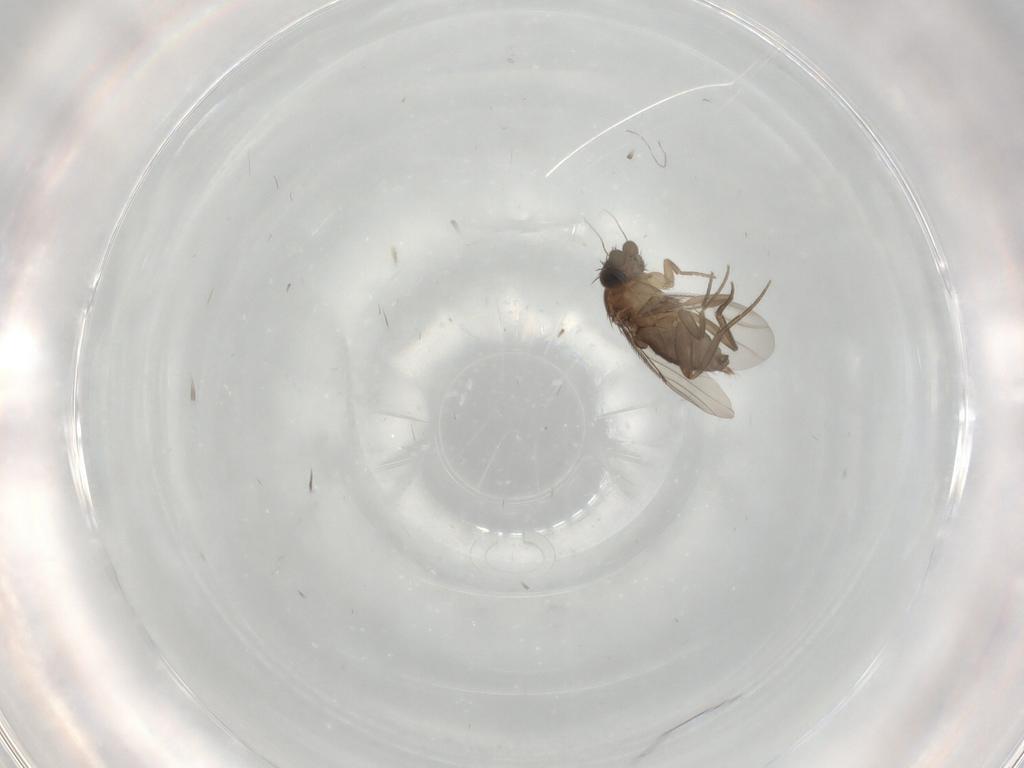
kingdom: Animalia
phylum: Arthropoda
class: Insecta
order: Diptera
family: Phoridae
